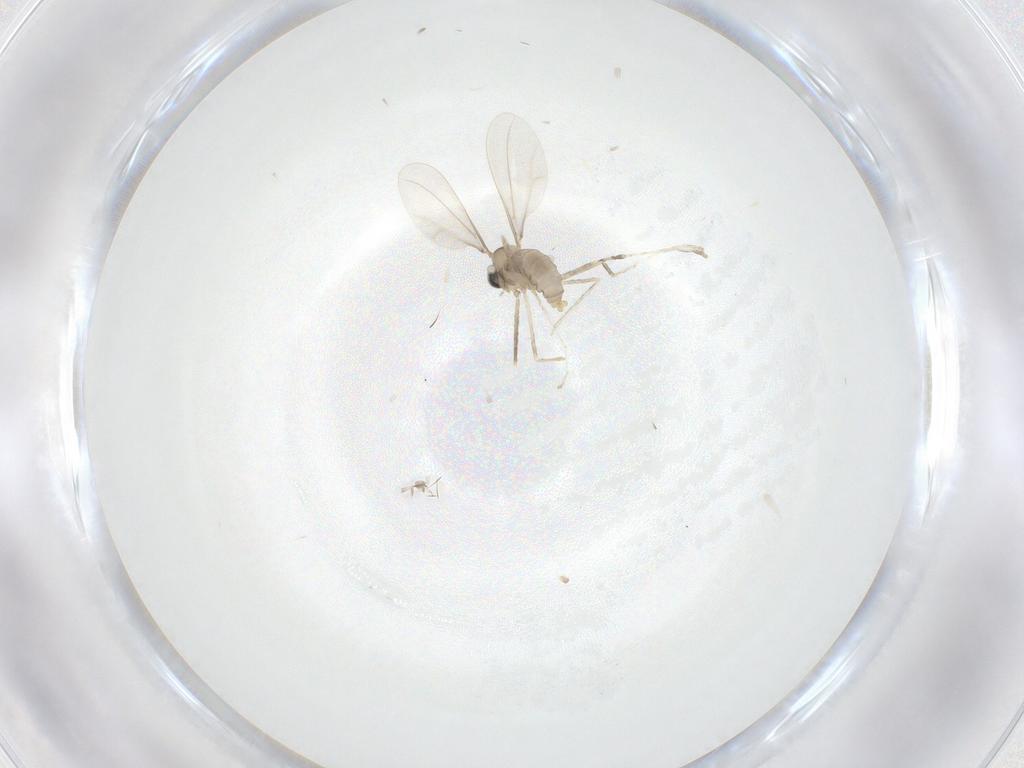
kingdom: Animalia
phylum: Arthropoda
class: Insecta
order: Diptera
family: Cecidomyiidae
